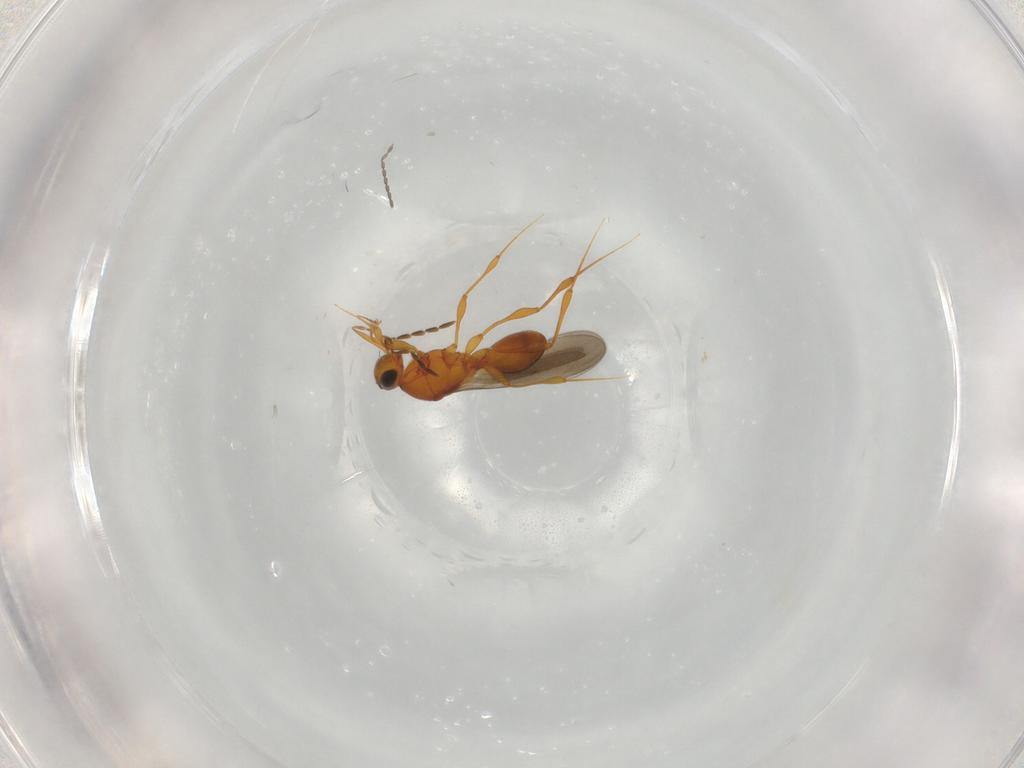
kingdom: Animalia
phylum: Arthropoda
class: Insecta
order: Hymenoptera
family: Platygastridae
